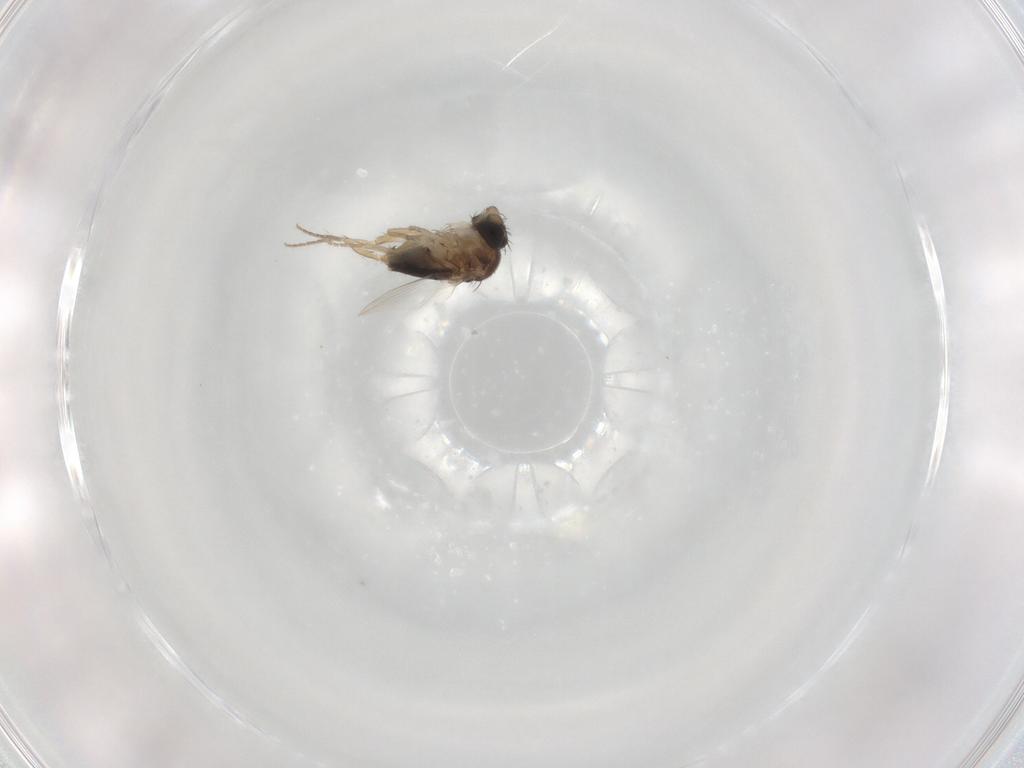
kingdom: Animalia
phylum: Arthropoda
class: Insecta
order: Diptera
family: Phoridae
